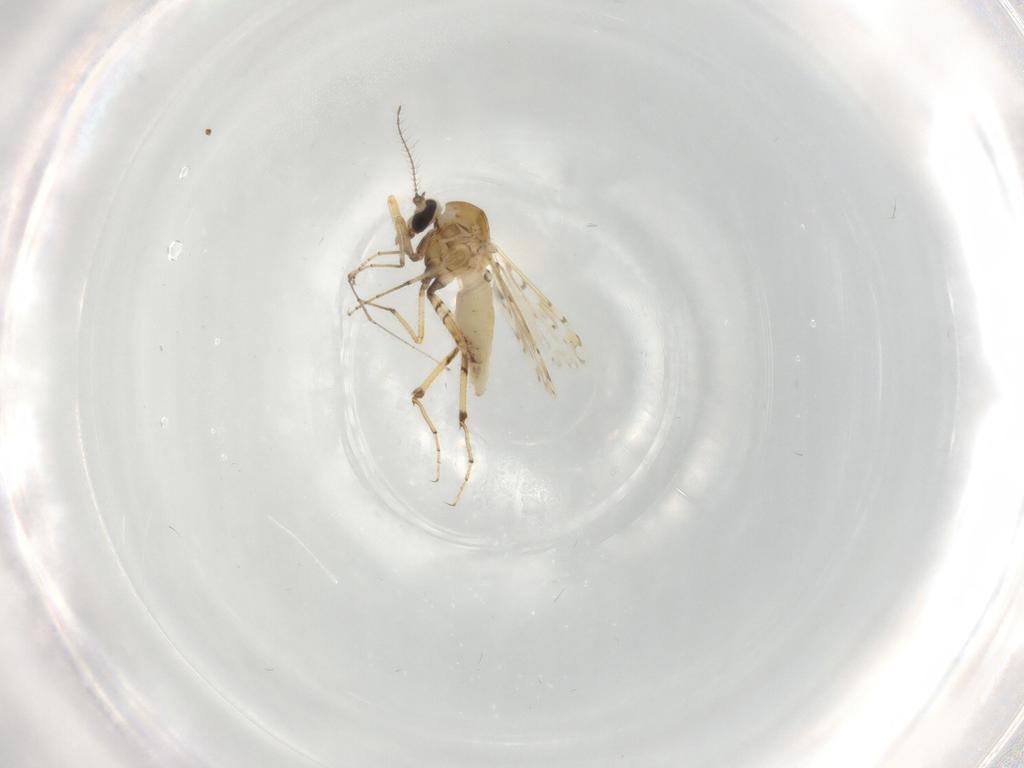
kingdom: Animalia
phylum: Arthropoda
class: Insecta
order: Diptera
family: Ceratopogonidae
